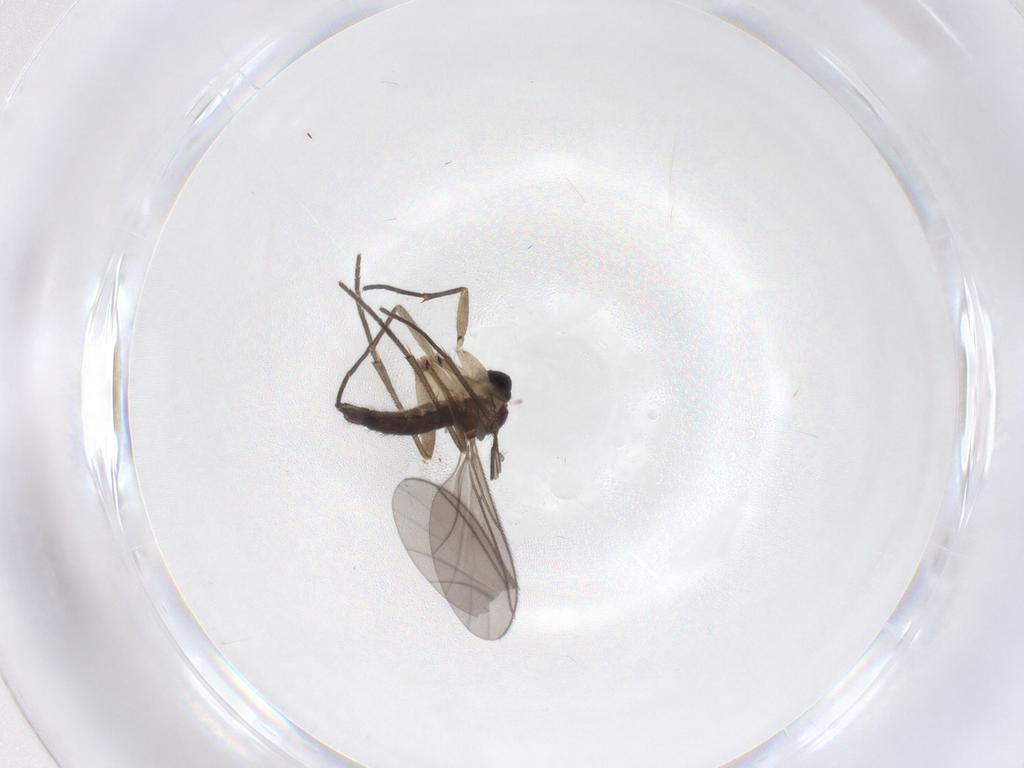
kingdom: Animalia
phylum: Arthropoda
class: Insecta
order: Diptera
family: Sciaridae
